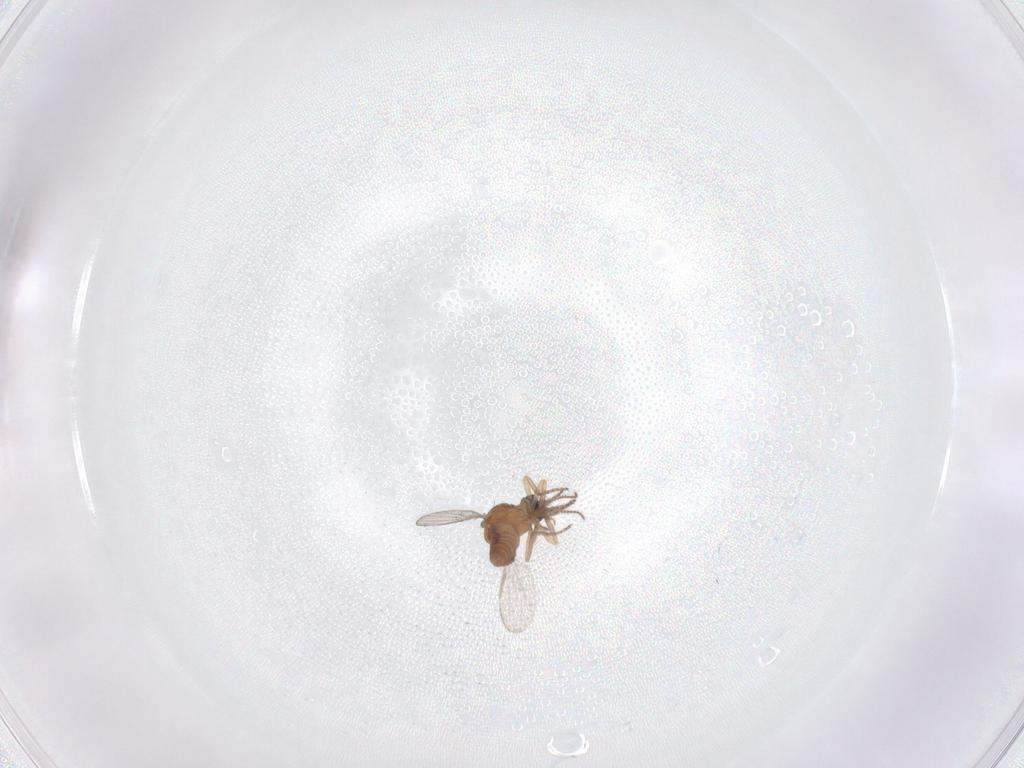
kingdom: Animalia
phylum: Arthropoda
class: Insecta
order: Diptera
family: Ceratopogonidae
